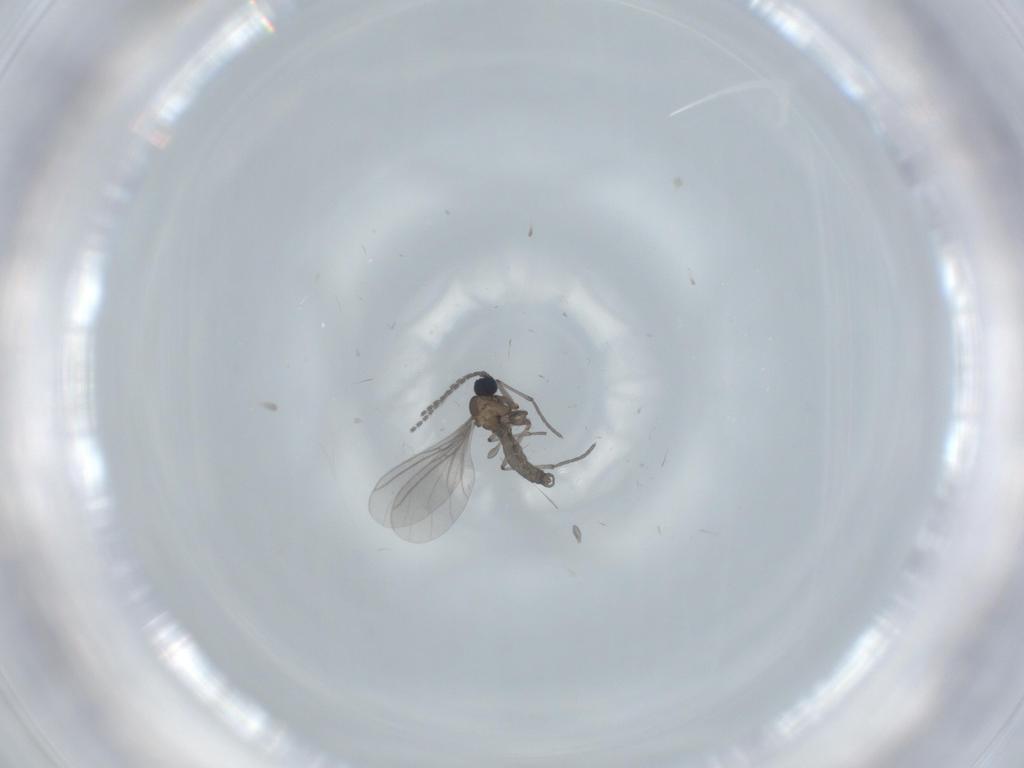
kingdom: Animalia
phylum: Arthropoda
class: Insecta
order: Diptera
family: Sciaridae
